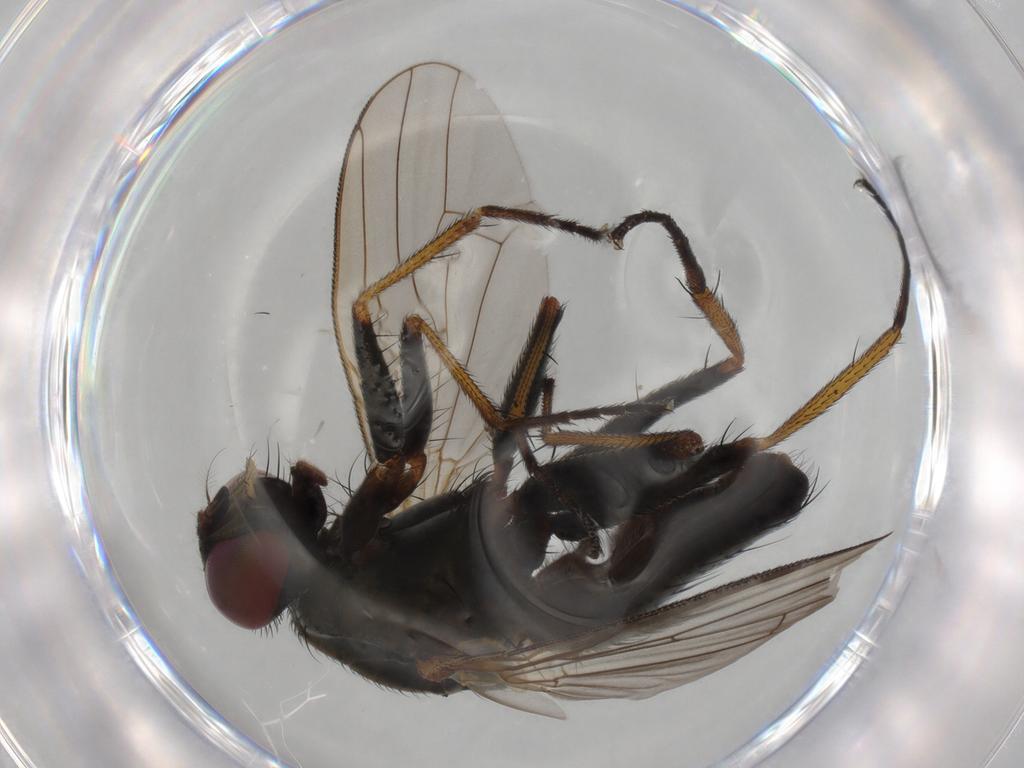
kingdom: Animalia
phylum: Arthropoda
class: Insecta
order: Diptera
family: Muscidae
